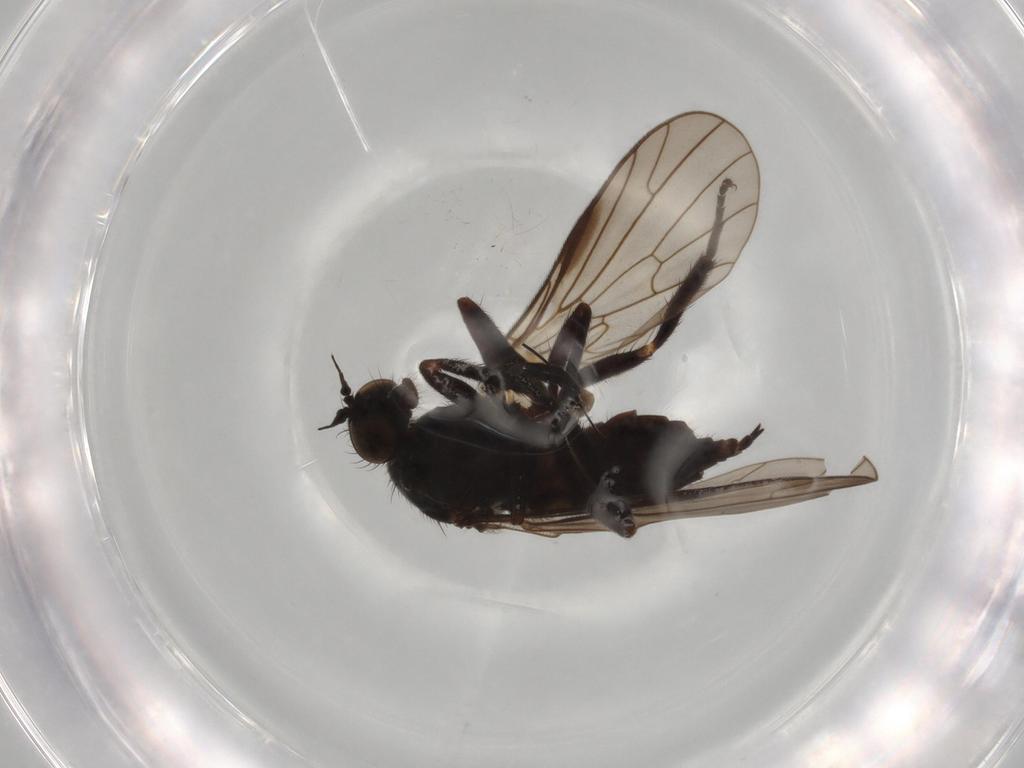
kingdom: Animalia
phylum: Arthropoda
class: Insecta
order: Diptera
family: Empididae
